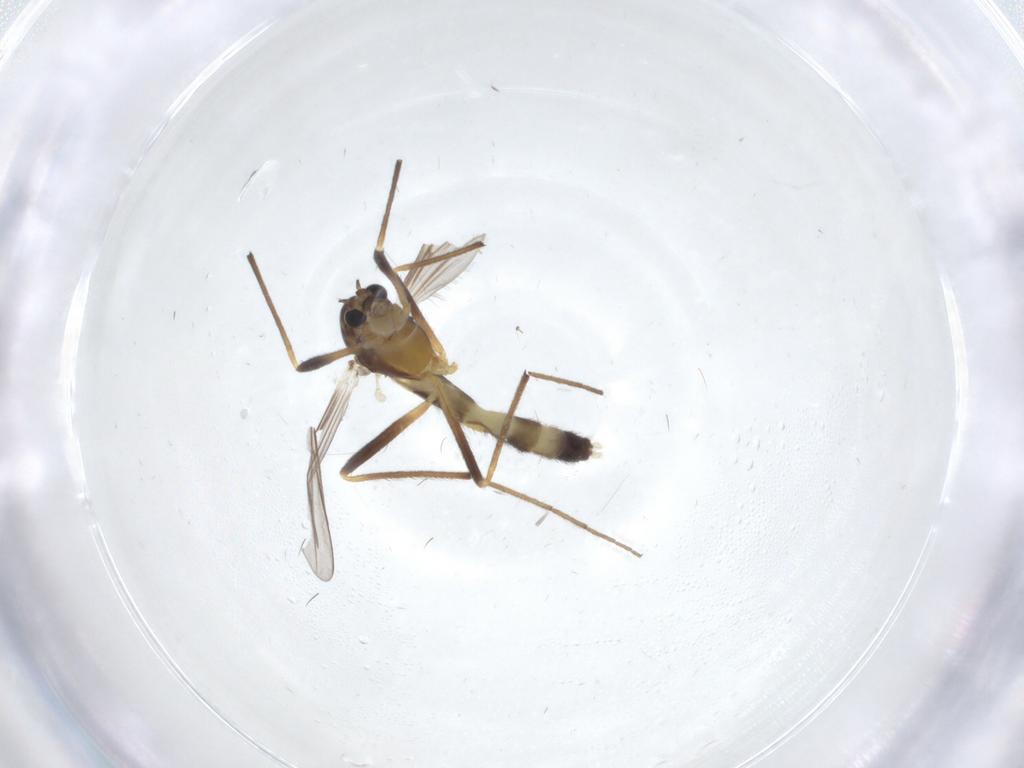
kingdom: Animalia
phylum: Arthropoda
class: Insecta
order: Diptera
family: Chironomidae
